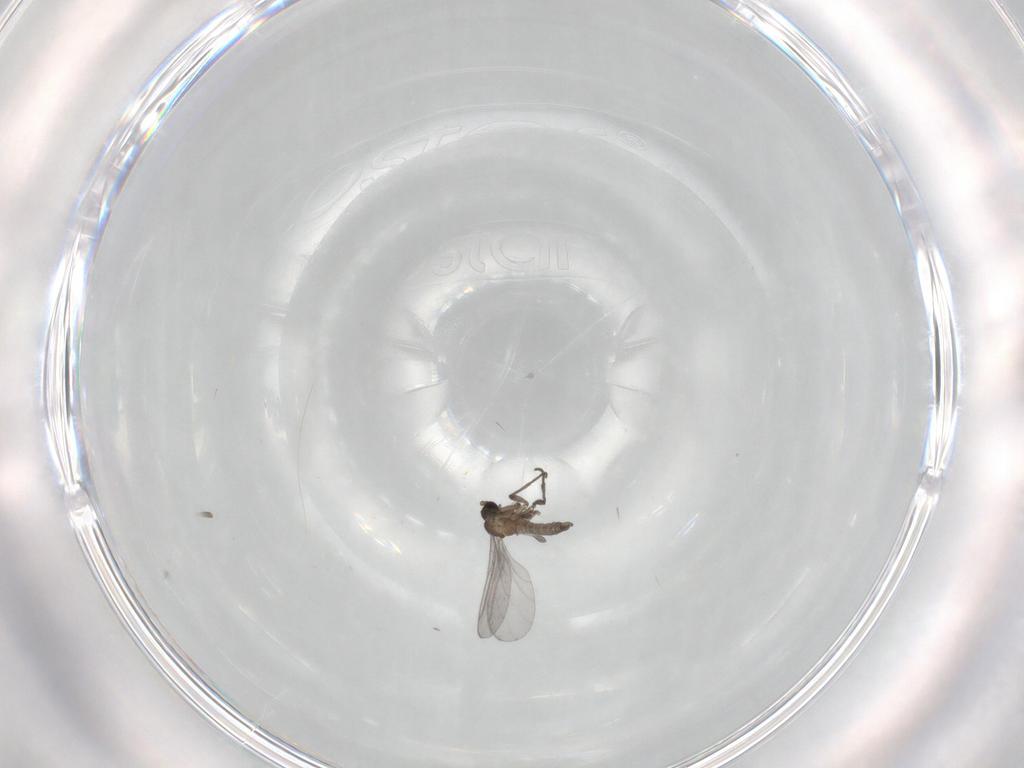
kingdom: Animalia
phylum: Arthropoda
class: Insecta
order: Diptera
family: Sciaridae
